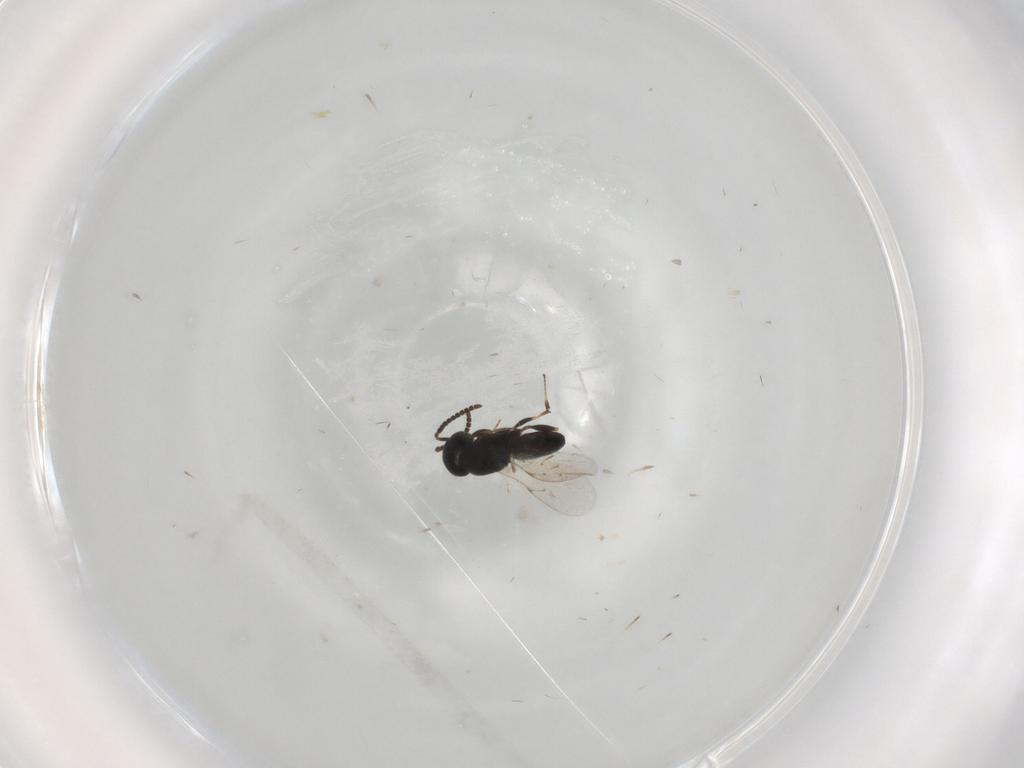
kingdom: Animalia
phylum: Arthropoda
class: Insecta
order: Hymenoptera
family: Scelionidae
